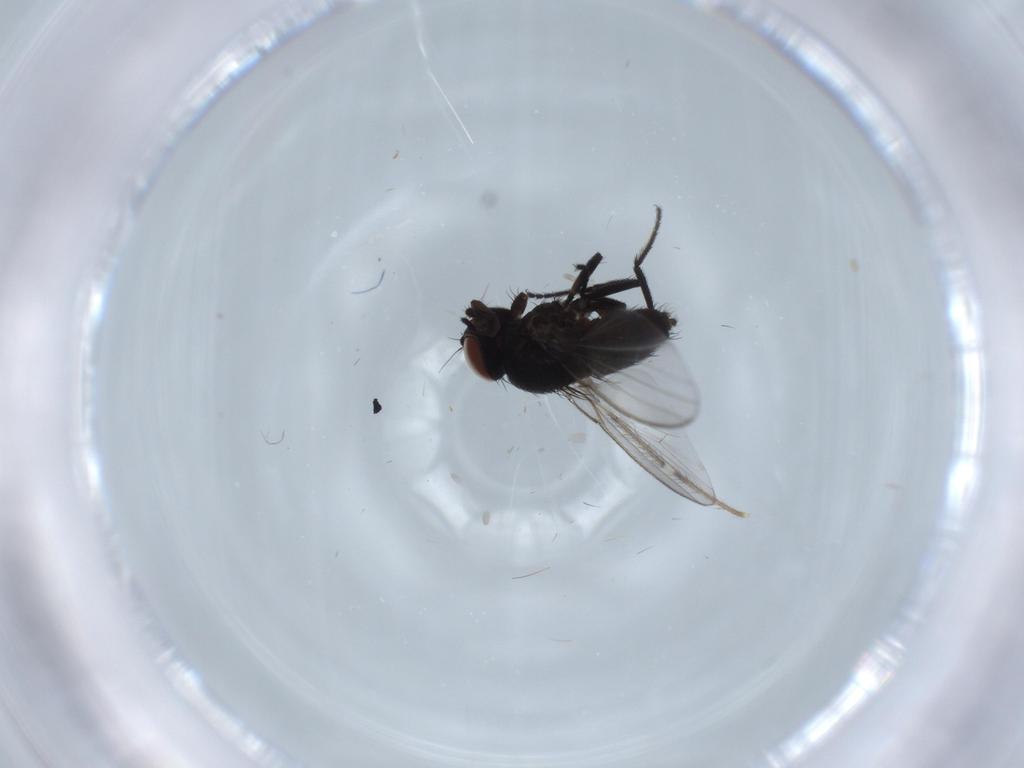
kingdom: Animalia
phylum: Arthropoda
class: Insecta
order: Diptera
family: Milichiidae
